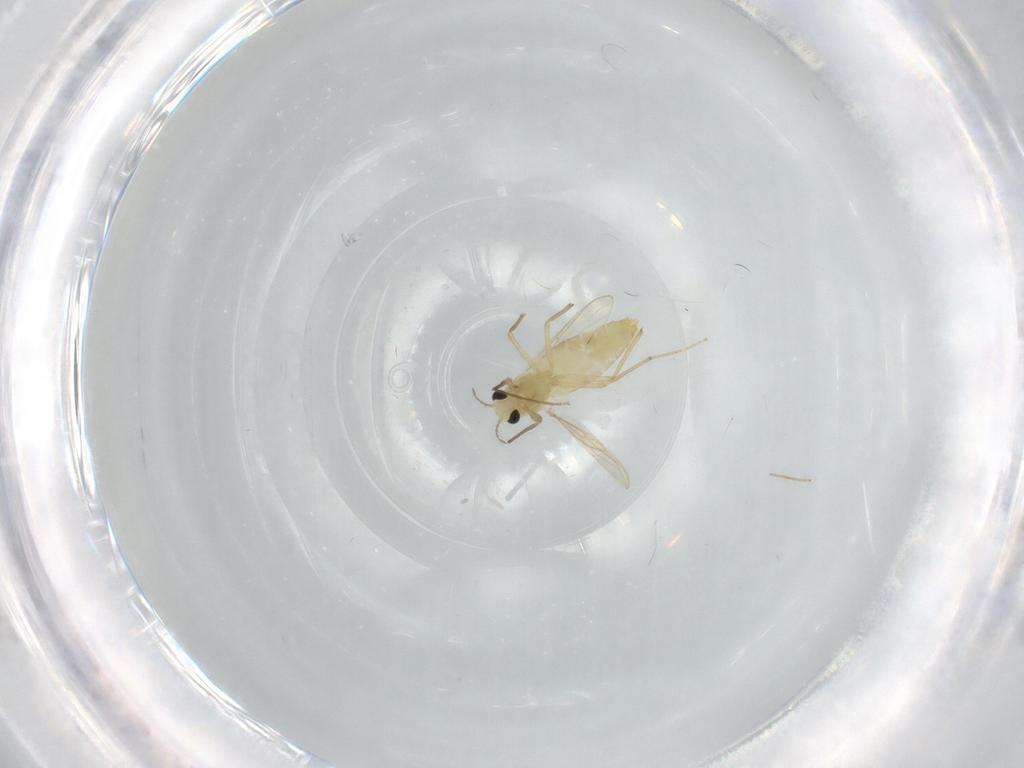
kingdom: Animalia
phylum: Arthropoda
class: Insecta
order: Diptera
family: Chironomidae
